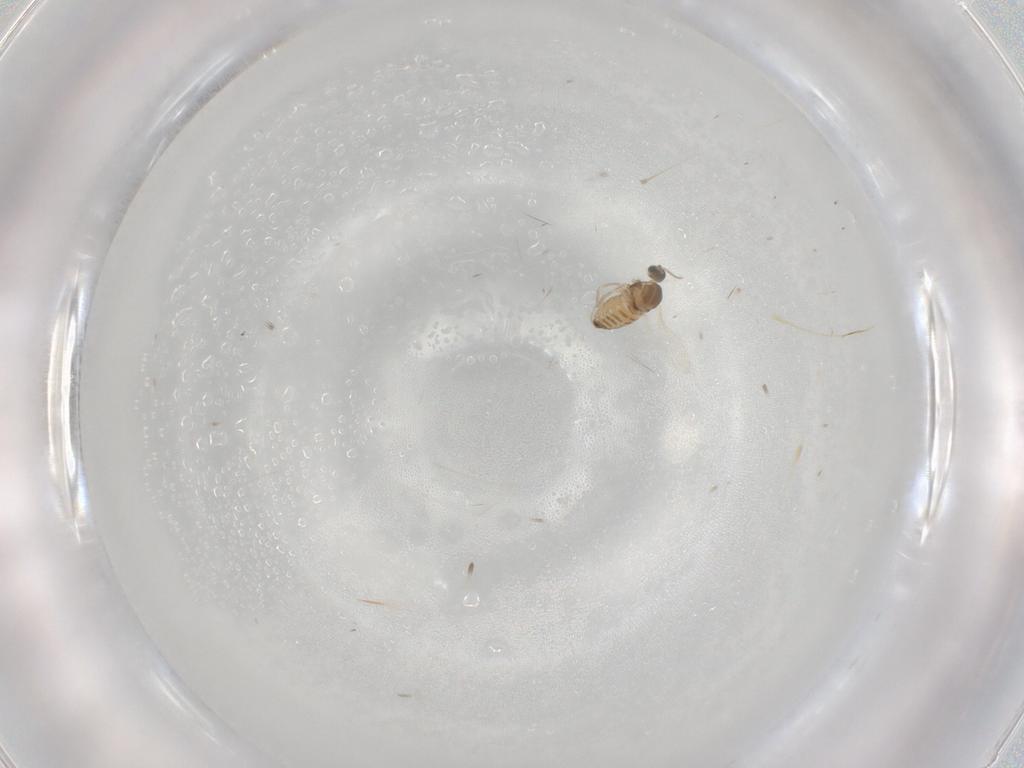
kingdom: Animalia
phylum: Arthropoda
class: Insecta
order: Diptera
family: Cecidomyiidae
